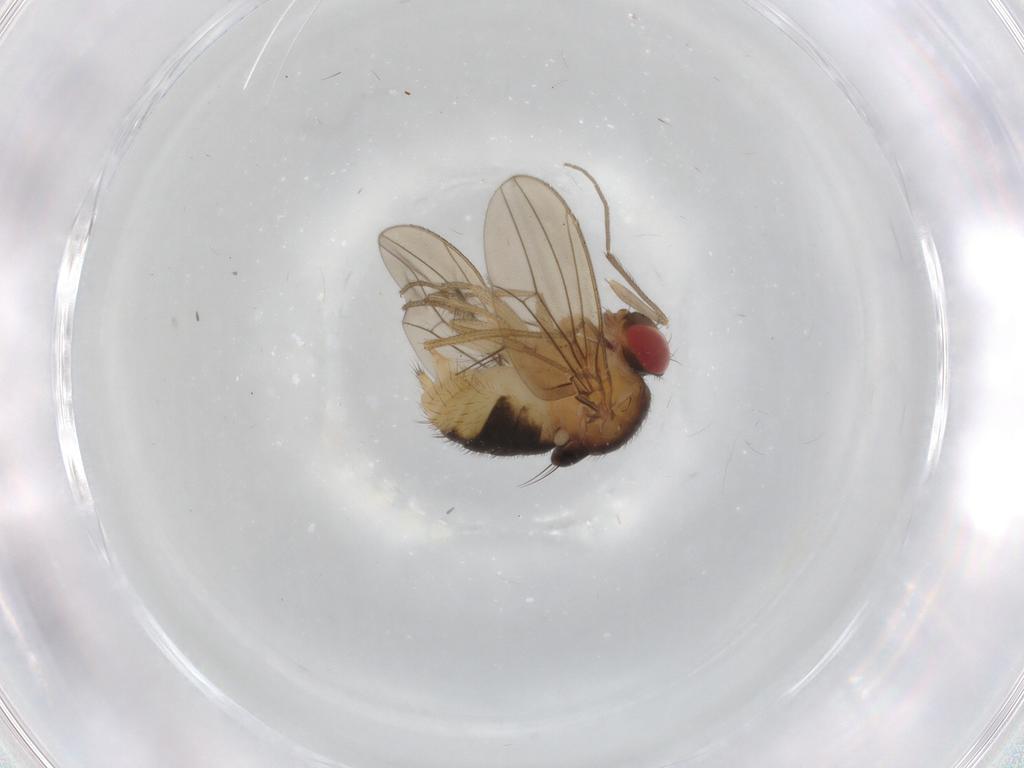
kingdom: Animalia
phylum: Arthropoda
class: Insecta
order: Diptera
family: Drosophilidae
